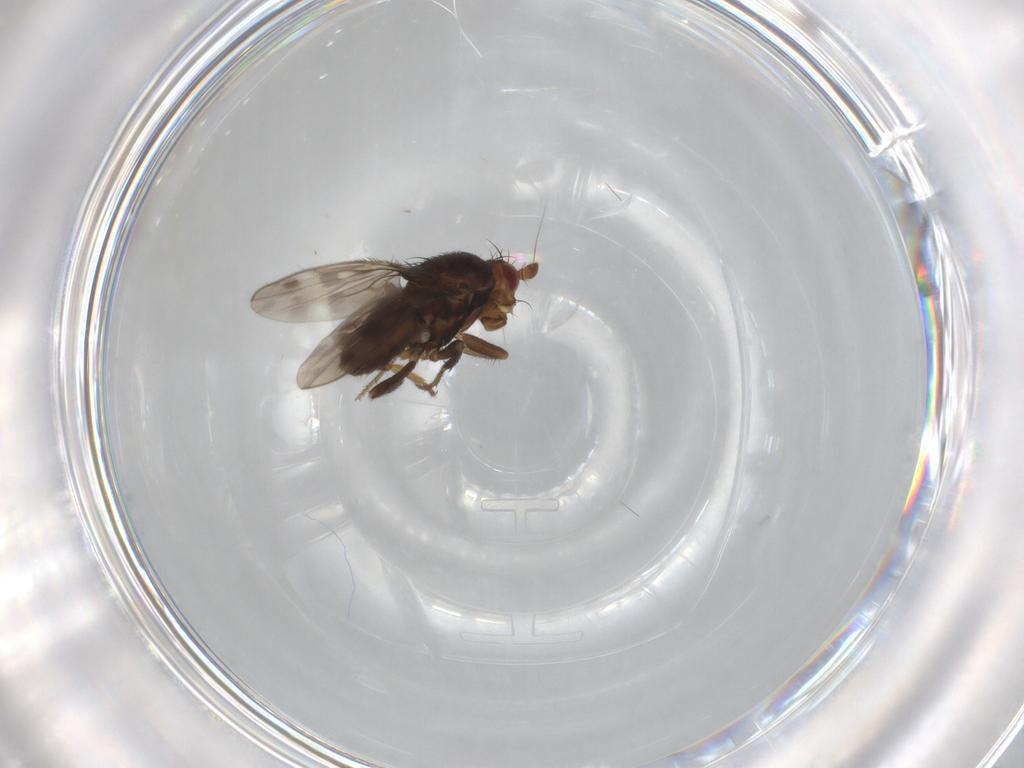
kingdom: Animalia
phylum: Arthropoda
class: Insecta
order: Diptera
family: Sphaeroceridae
